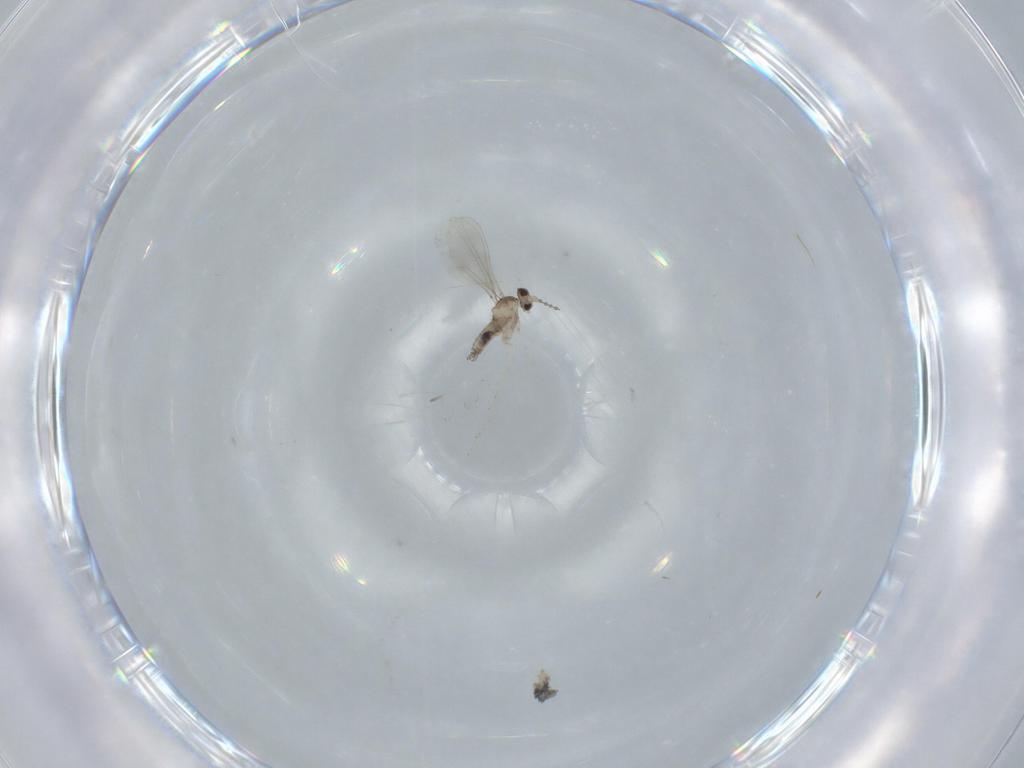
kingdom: Animalia
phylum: Arthropoda
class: Insecta
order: Diptera
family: Cecidomyiidae
